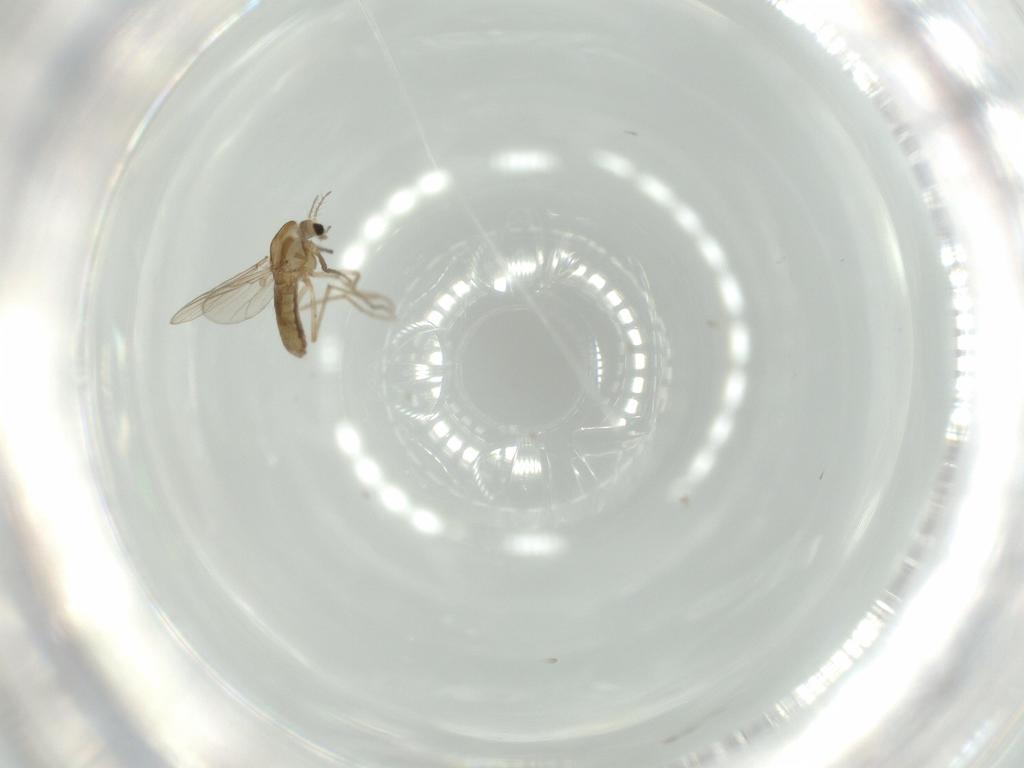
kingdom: Animalia
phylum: Arthropoda
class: Insecta
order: Diptera
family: Chironomidae
